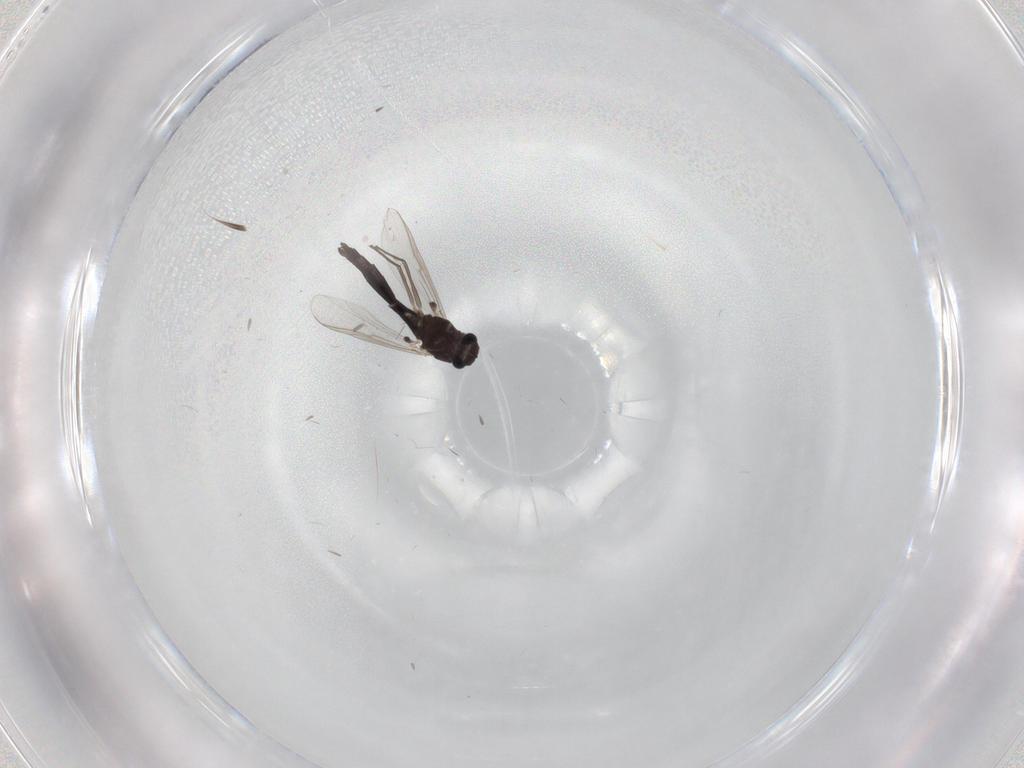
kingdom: Animalia
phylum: Arthropoda
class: Insecta
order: Diptera
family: Chironomidae
